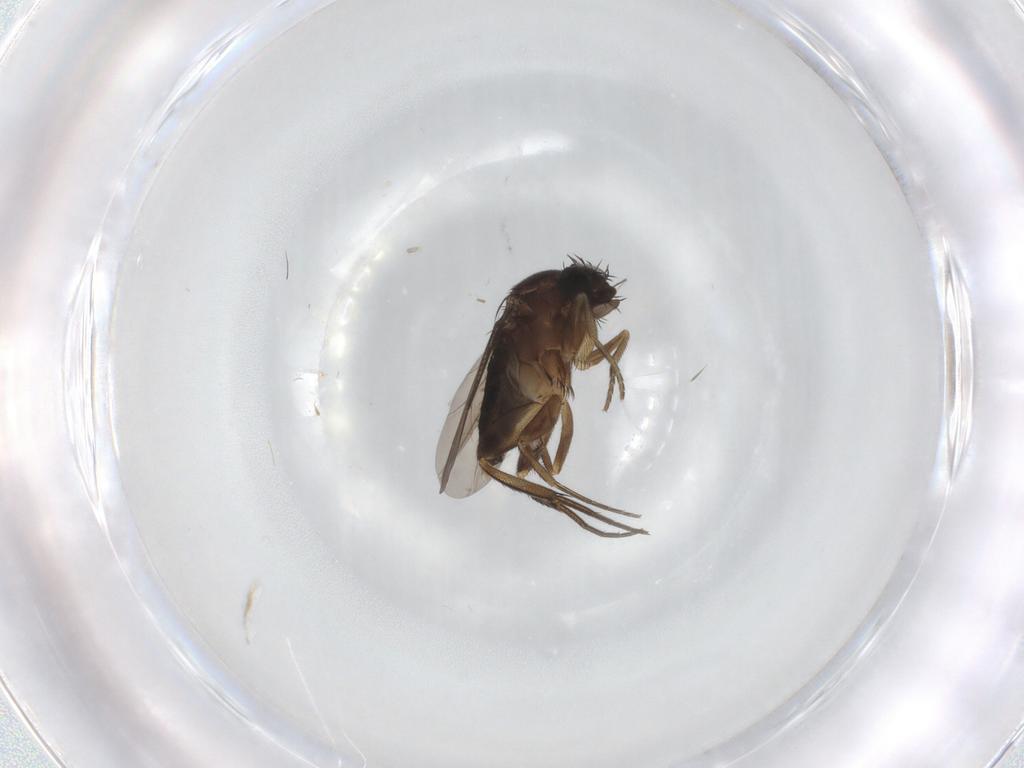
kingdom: Animalia
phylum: Arthropoda
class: Insecta
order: Diptera
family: Phoridae
